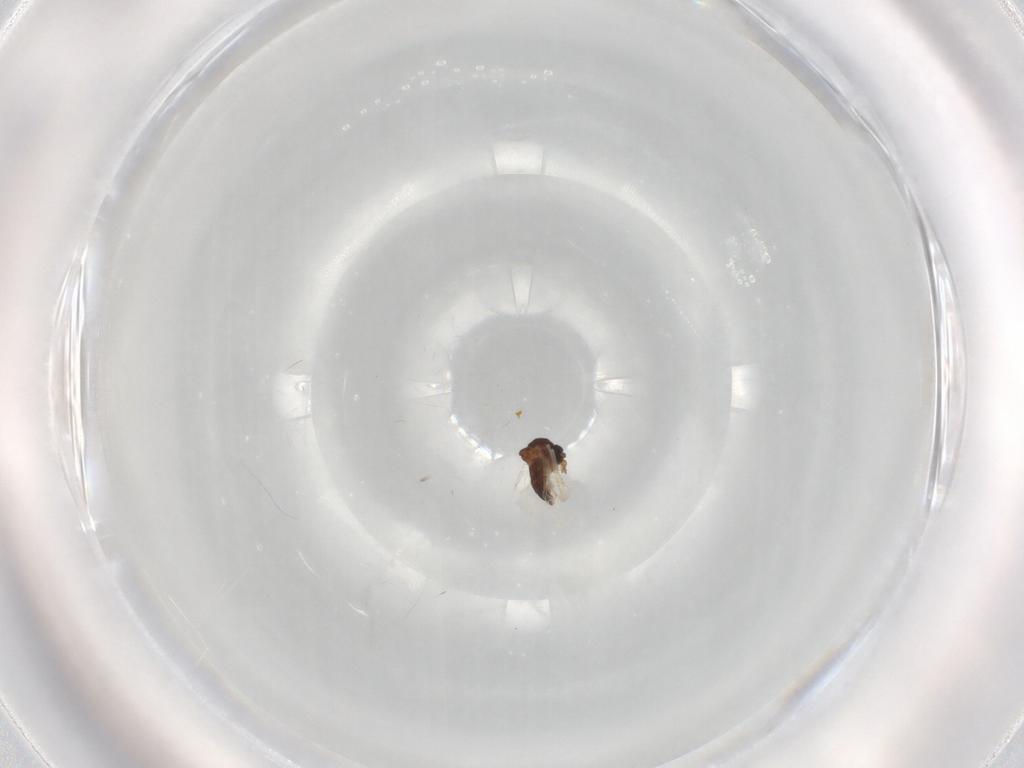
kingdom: Animalia
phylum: Arthropoda
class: Insecta
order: Diptera
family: Ceratopogonidae
